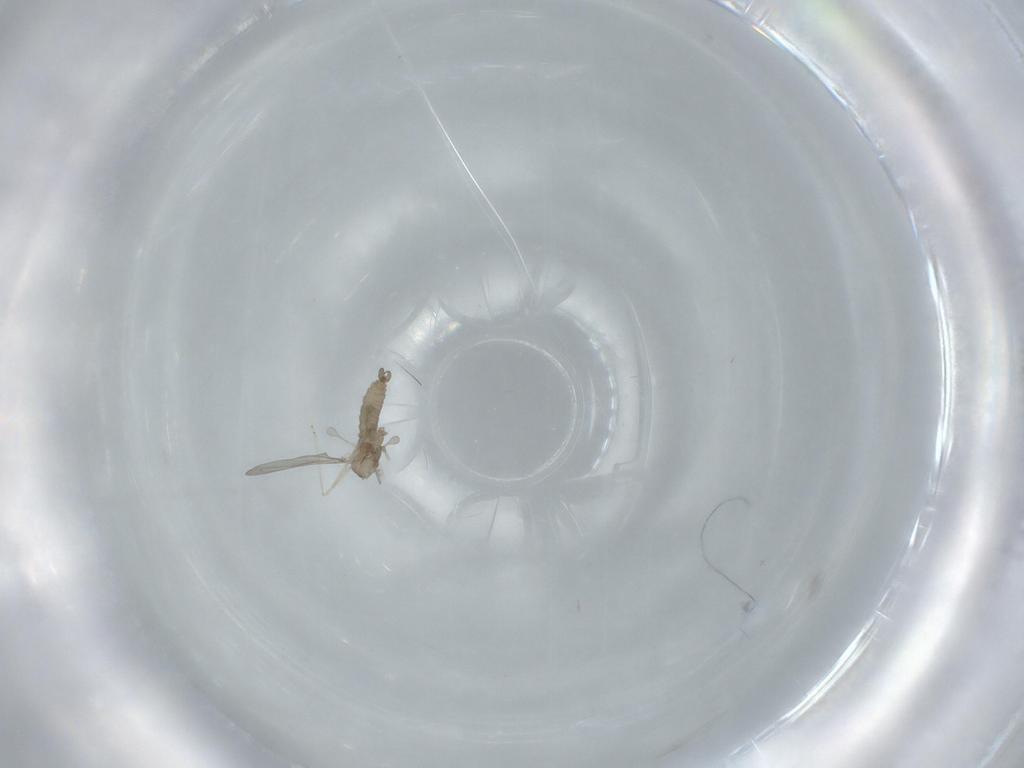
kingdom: Animalia
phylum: Arthropoda
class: Insecta
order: Diptera
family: Cecidomyiidae
